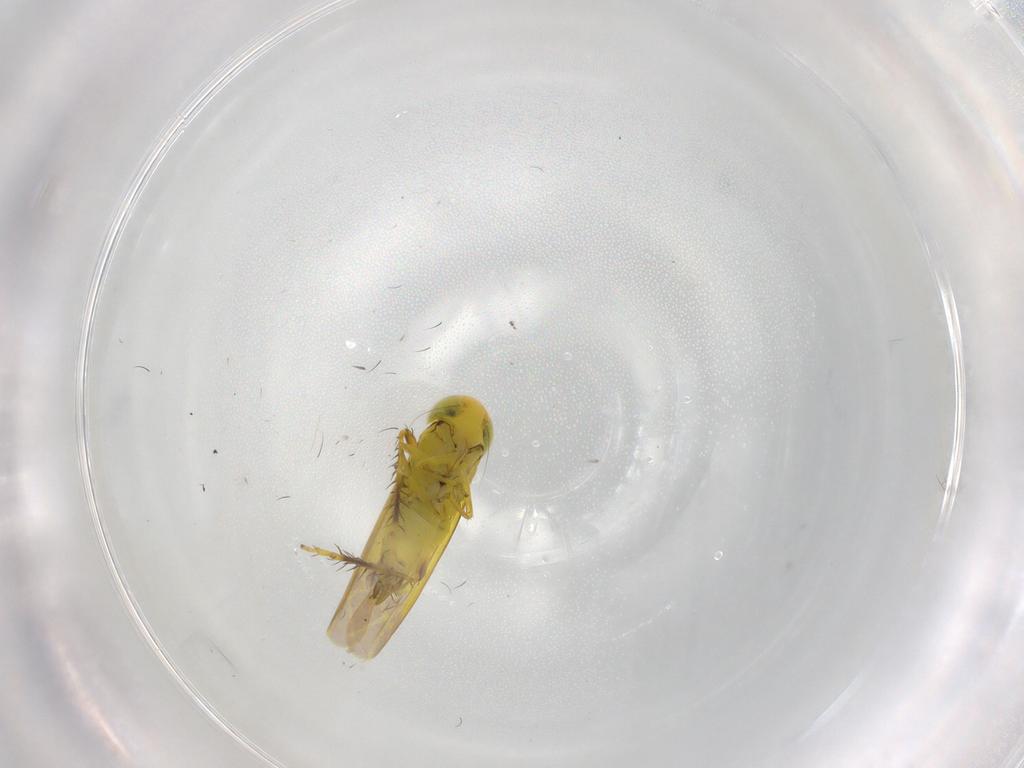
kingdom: Animalia
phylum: Arthropoda
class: Insecta
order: Hemiptera
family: Cicadellidae
